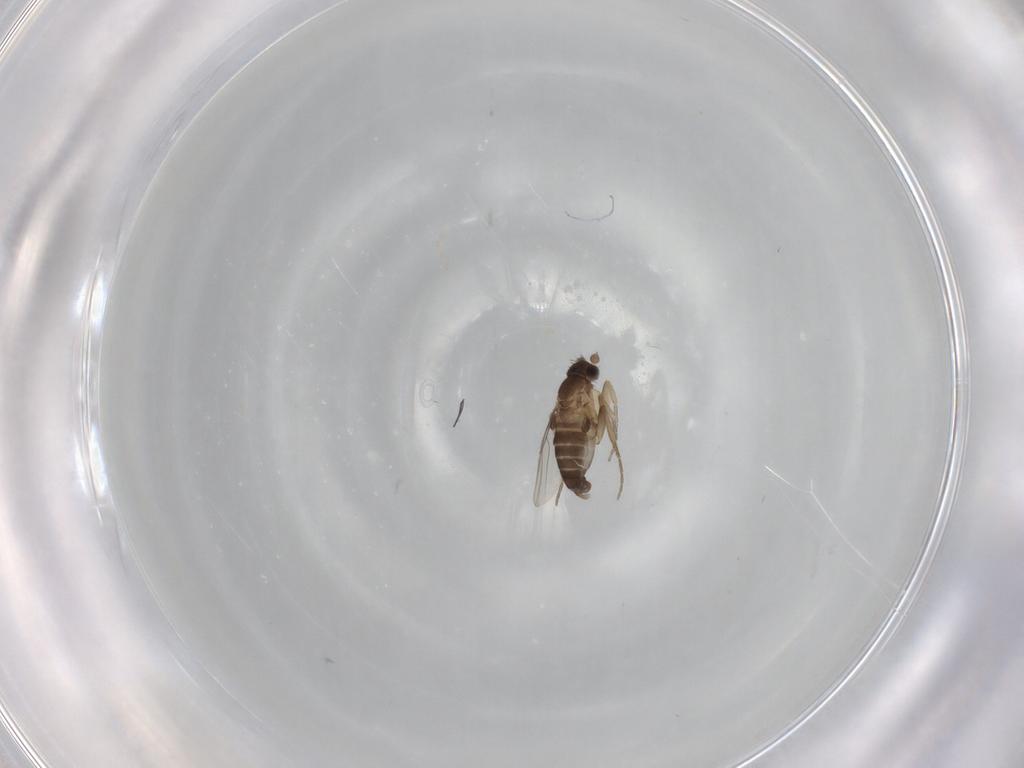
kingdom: Animalia
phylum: Arthropoda
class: Insecta
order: Diptera
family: Phoridae
